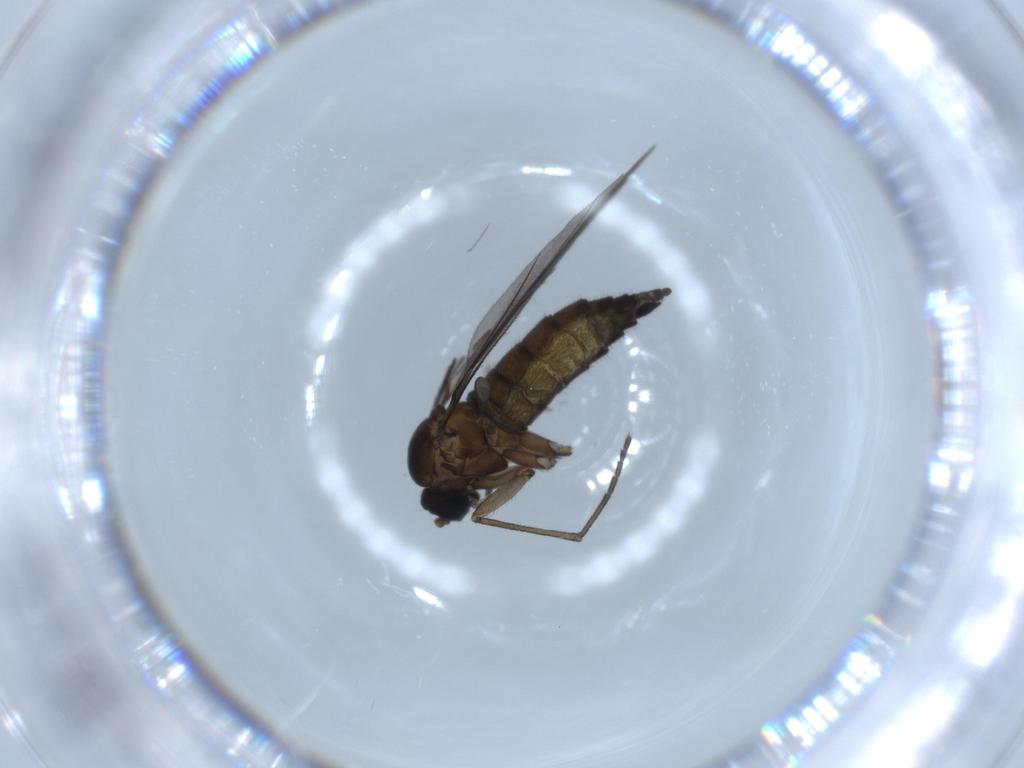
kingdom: Animalia
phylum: Arthropoda
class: Insecta
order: Diptera
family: Sciaridae
